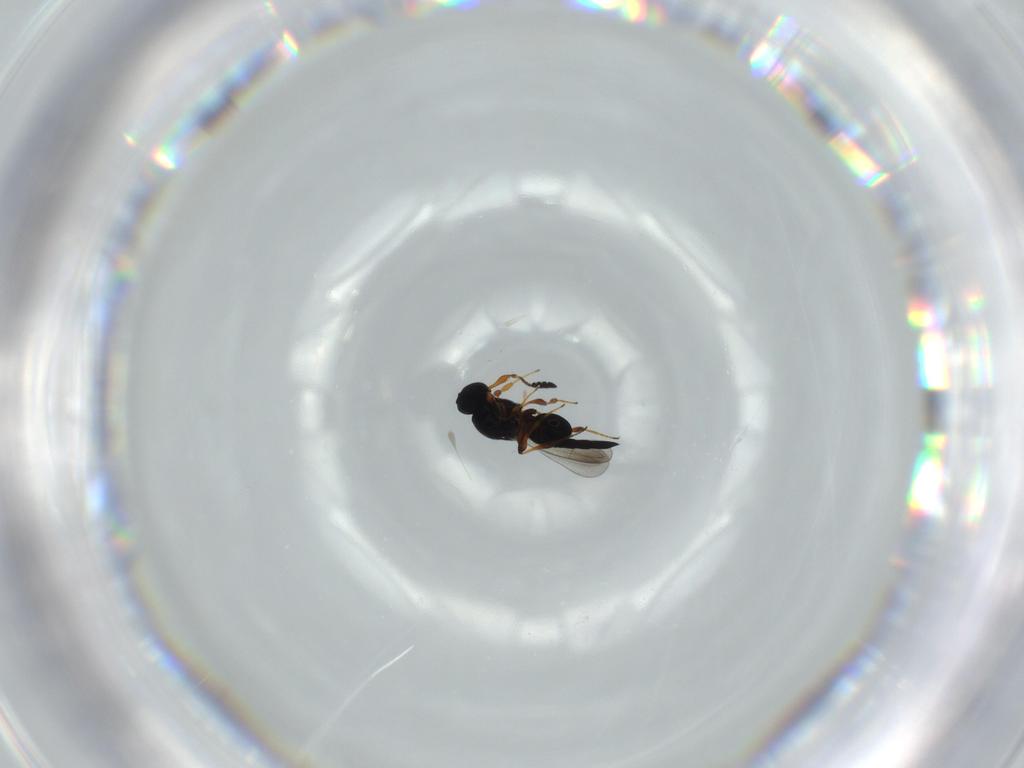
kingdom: Animalia
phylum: Arthropoda
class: Insecta
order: Hymenoptera
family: Platygastridae
